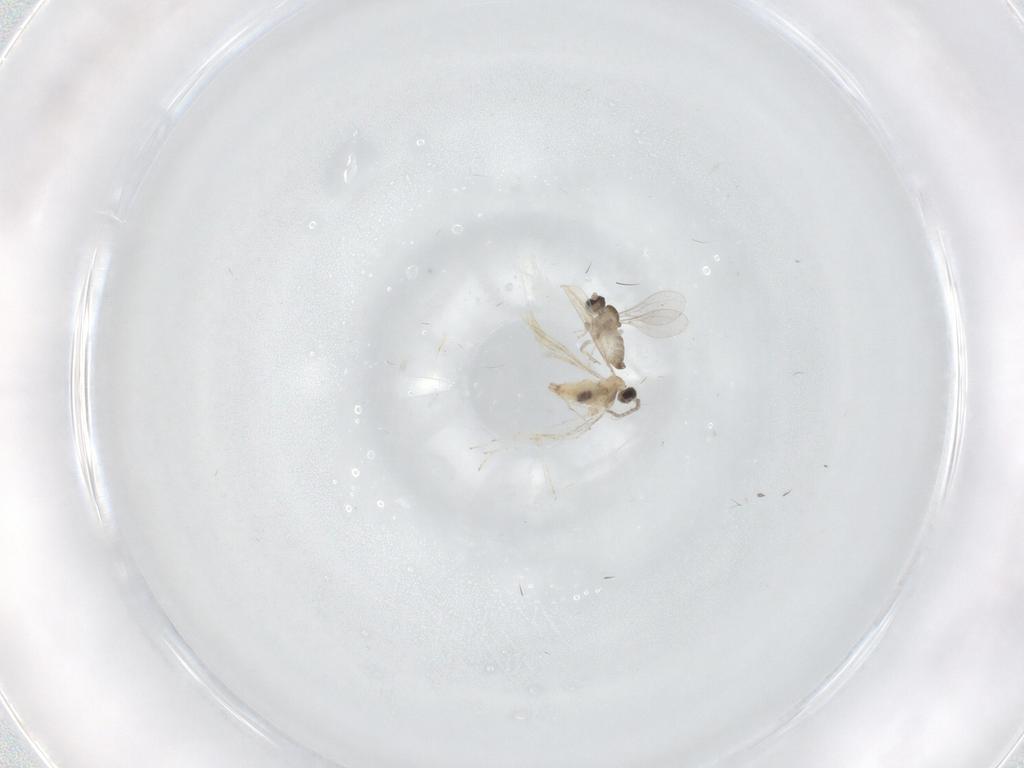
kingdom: Animalia
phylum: Arthropoda
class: Insecta
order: Diptera
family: Cecidomyiidae
